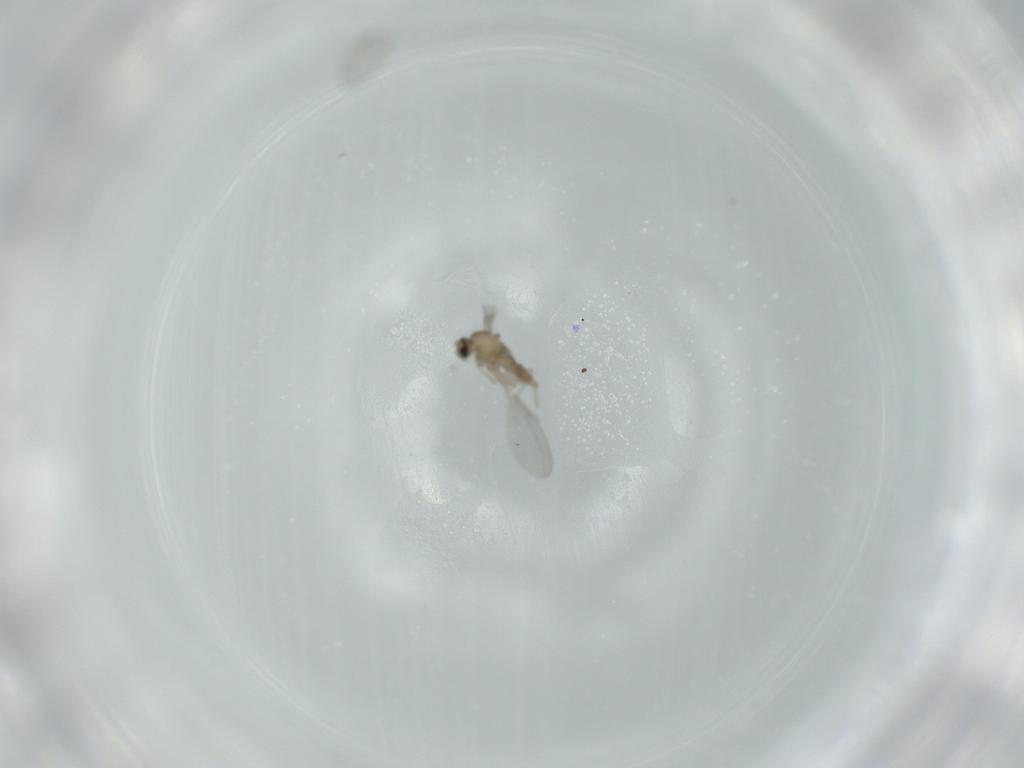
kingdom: Animalia
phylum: Arthropoda
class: Insecta
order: Diptera
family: Cecidomyiidae
